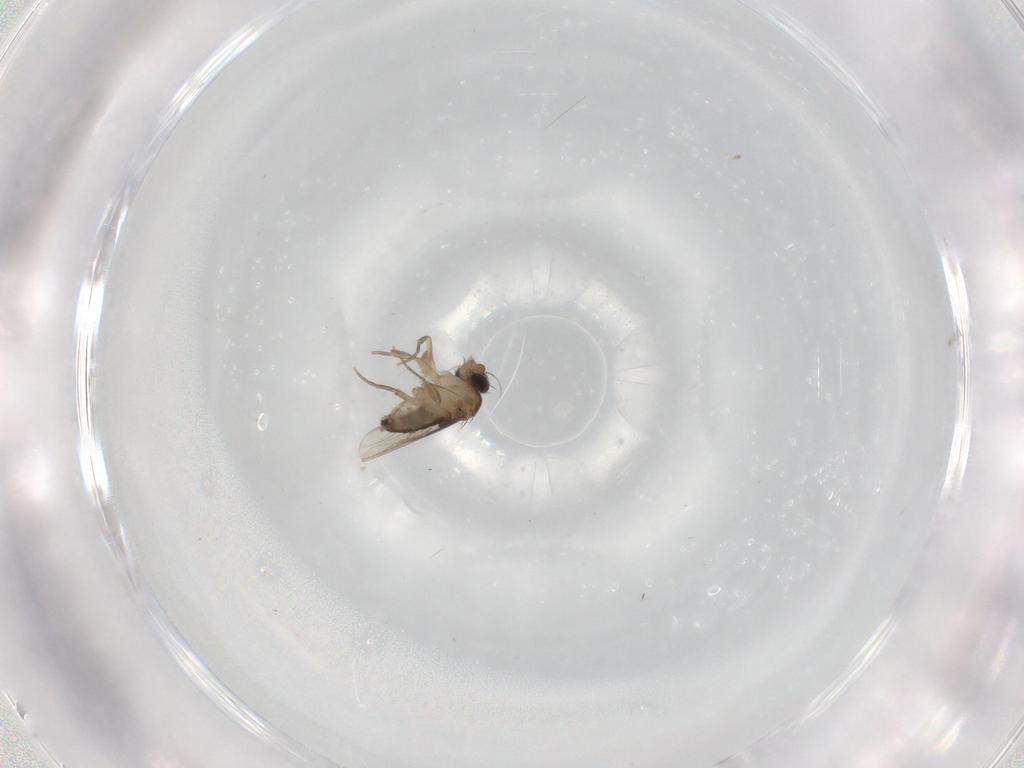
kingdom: Animalia
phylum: Arthropoda
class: Insecta
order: Diptera
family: Phoridae
